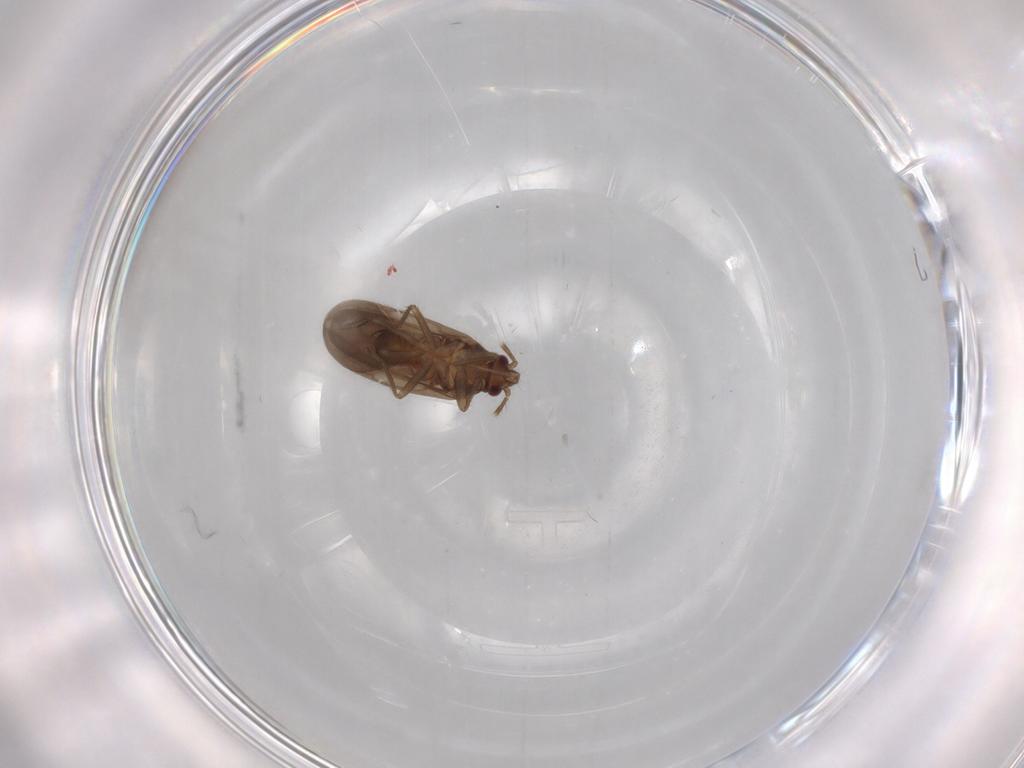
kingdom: Animalia
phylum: Arthropoda
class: Insecta
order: Hemiptera
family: Ceratocombidae
